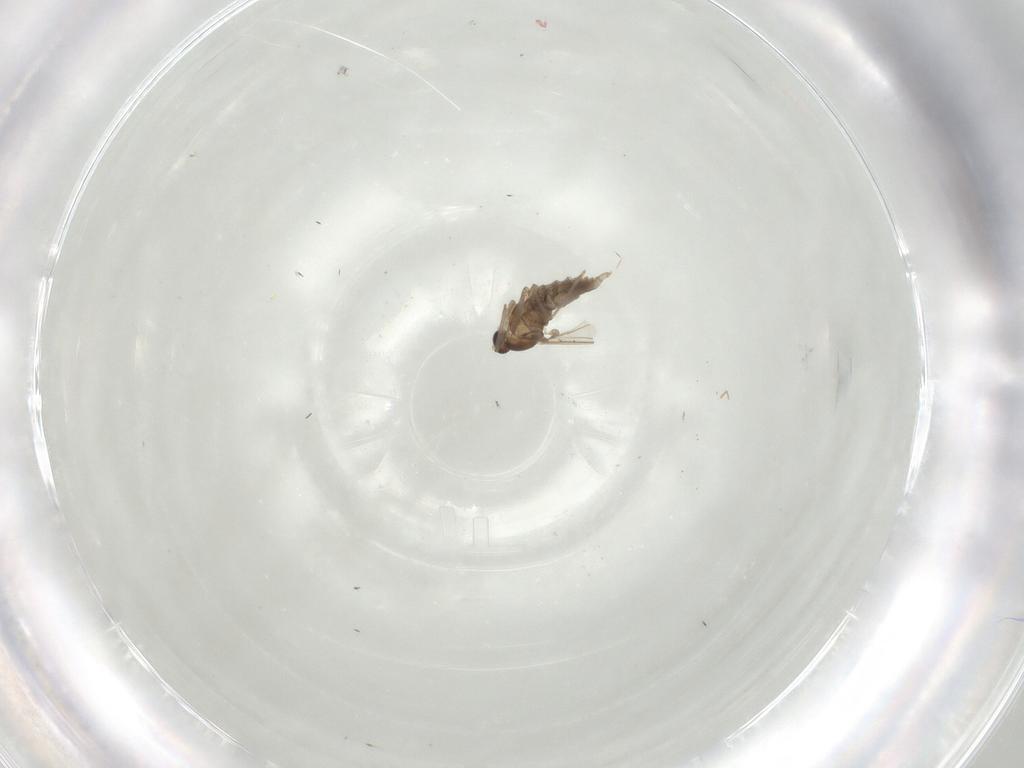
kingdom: Animalia
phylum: Arthropoda
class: Insecta
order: Diptera
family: Cecidomyiidae
